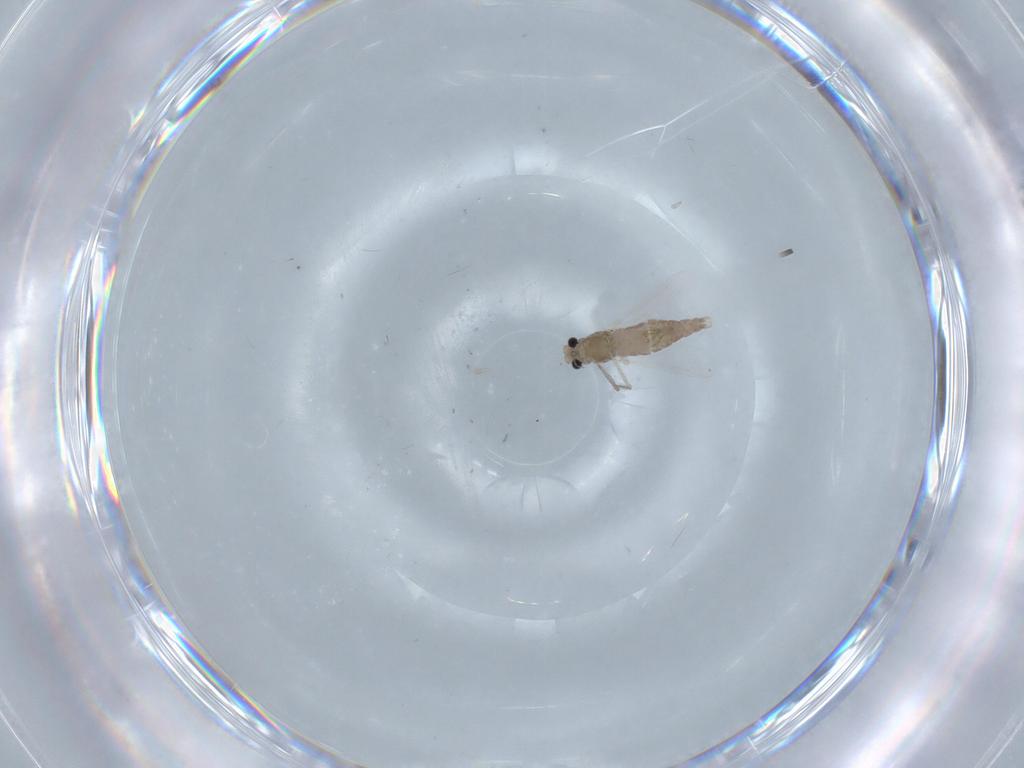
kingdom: Animalia
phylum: Arthropoda
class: Insecta
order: Diptera
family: Chironomidae
